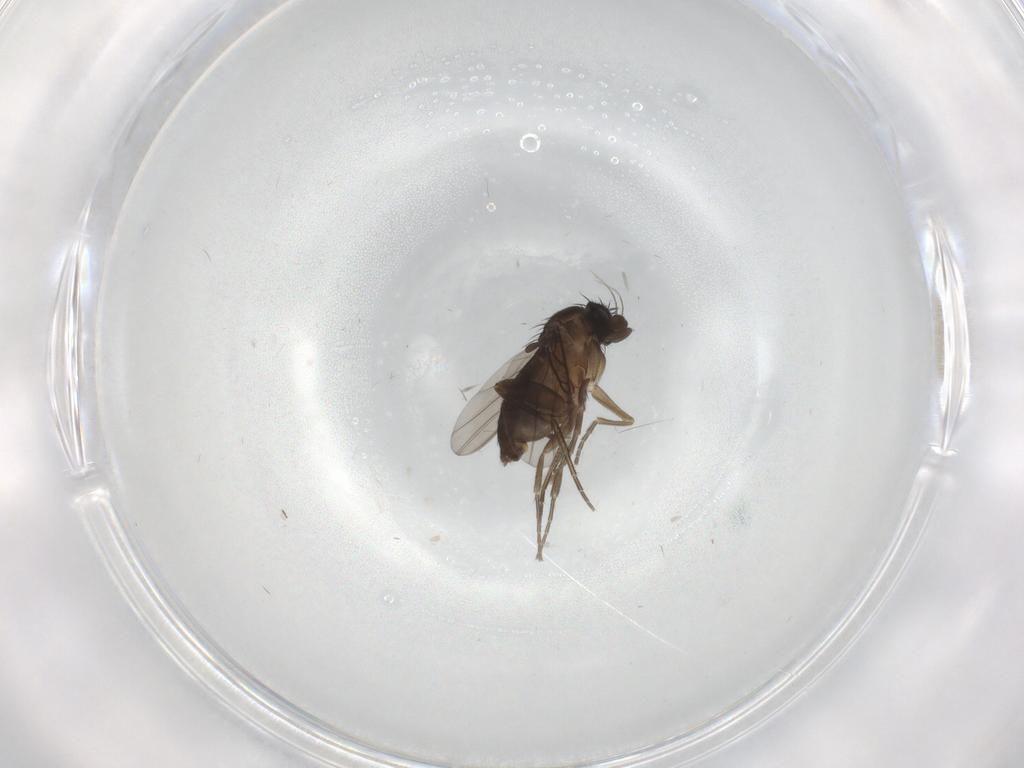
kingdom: Animalia
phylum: Arthropoda
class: Insecta
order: Diptera
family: Phoridae
